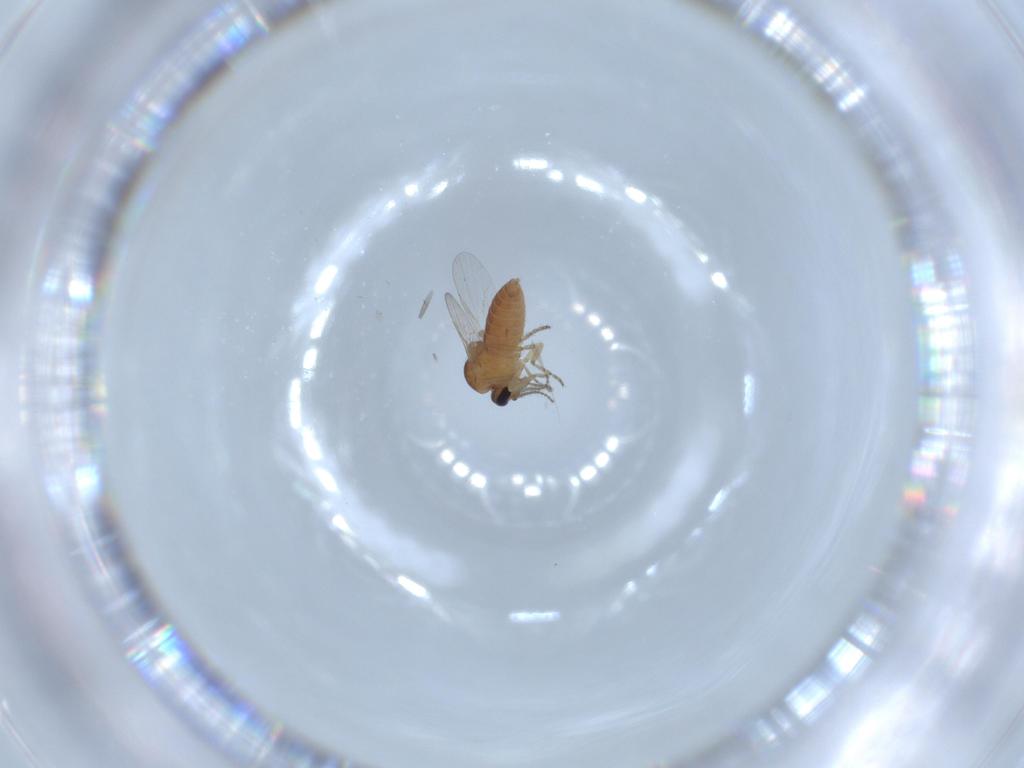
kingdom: Animalia
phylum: Arthropoda
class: Insecta
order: Diptera
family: Ceratopogonidae
